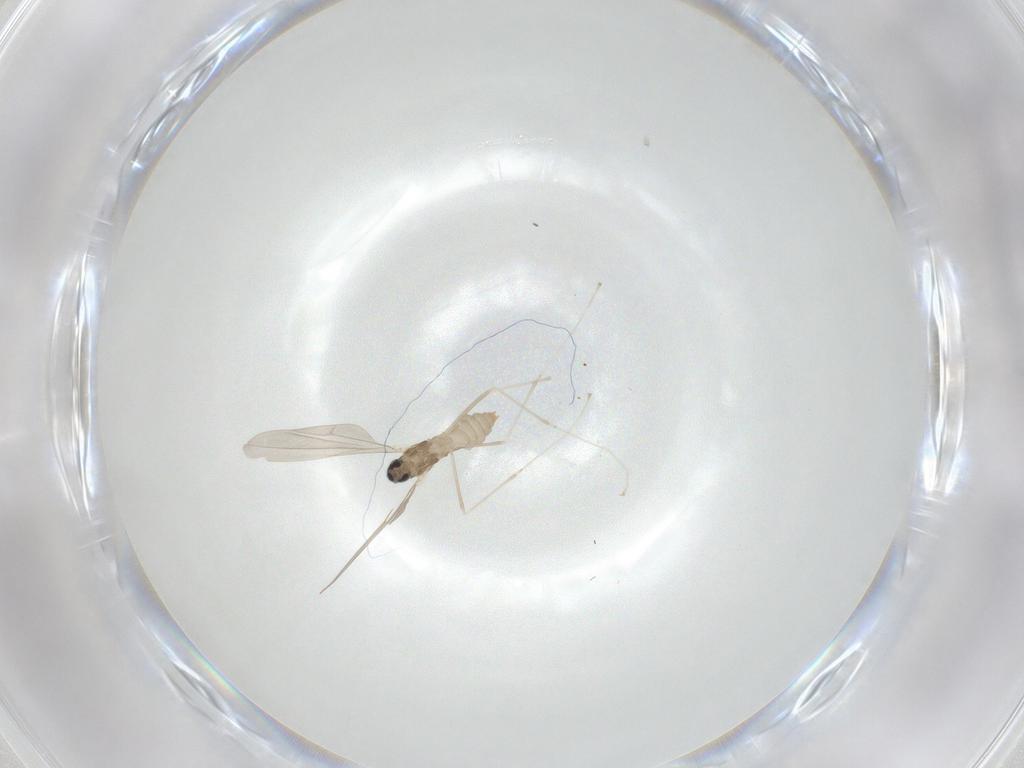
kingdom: Animalia
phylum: Arthropoda
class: Insecta
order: Diptera
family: Cecidomyiidae
